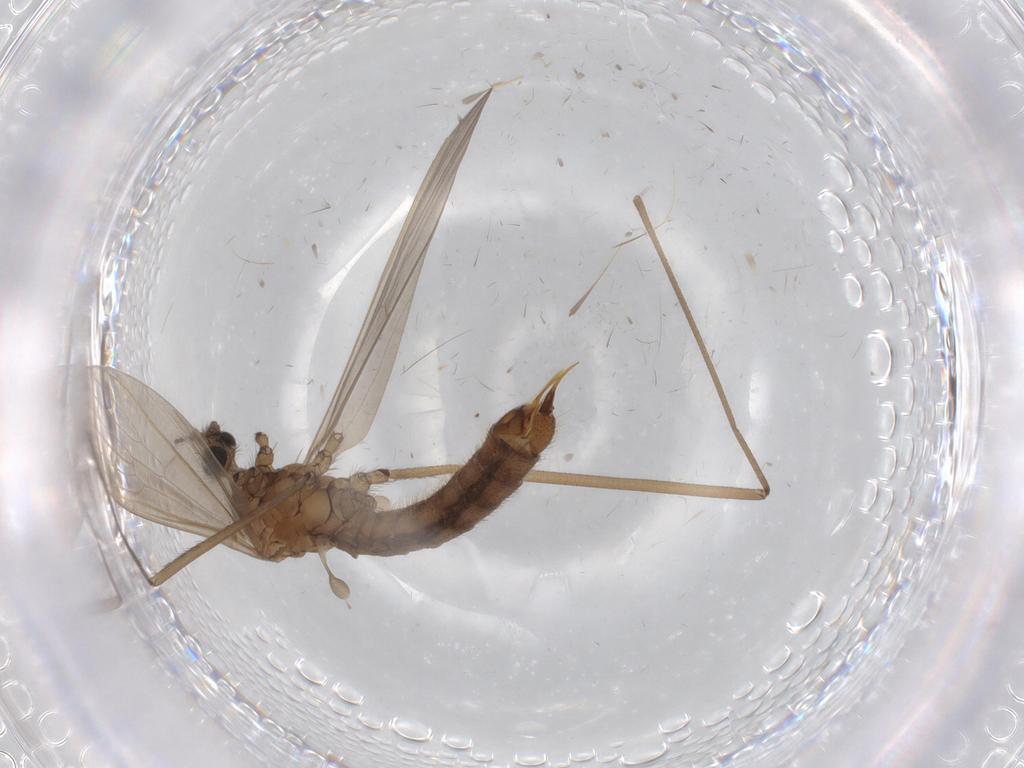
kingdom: Animalia
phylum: Arthropoda
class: Insecta
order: Diptera
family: Limoniidae
